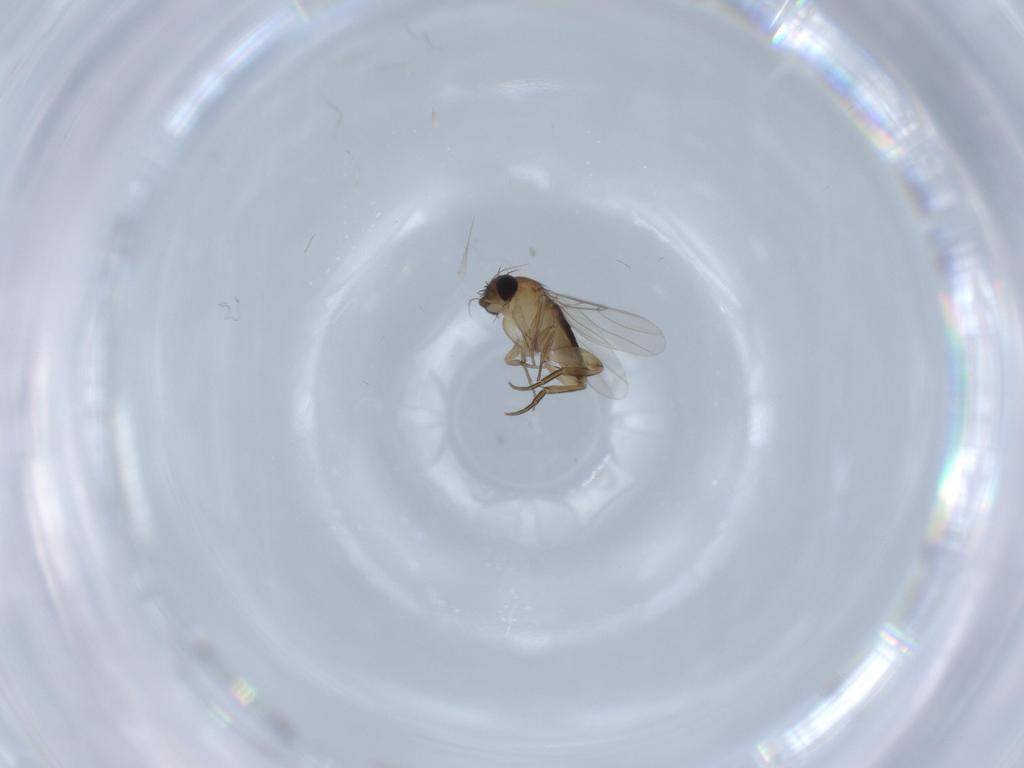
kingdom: Animalia
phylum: Arthropoda
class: Insecta
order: Diptera
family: Phoridae
